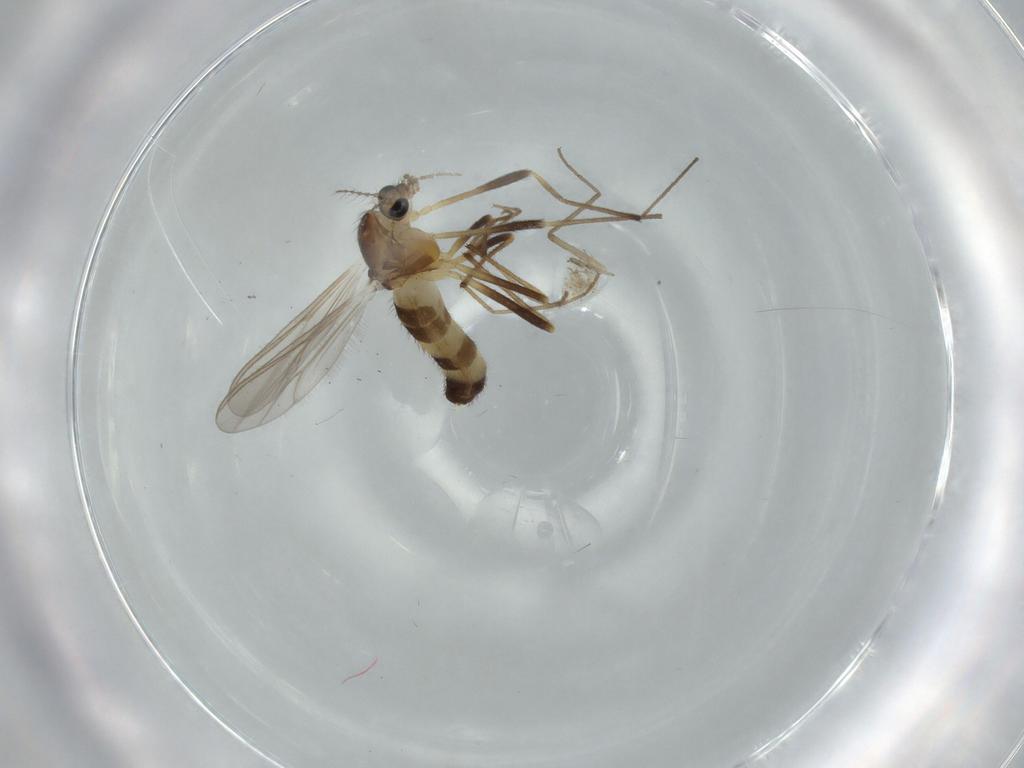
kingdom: Animalia
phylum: Arthropoda
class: Insecta
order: Diptera
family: Chironomidae
